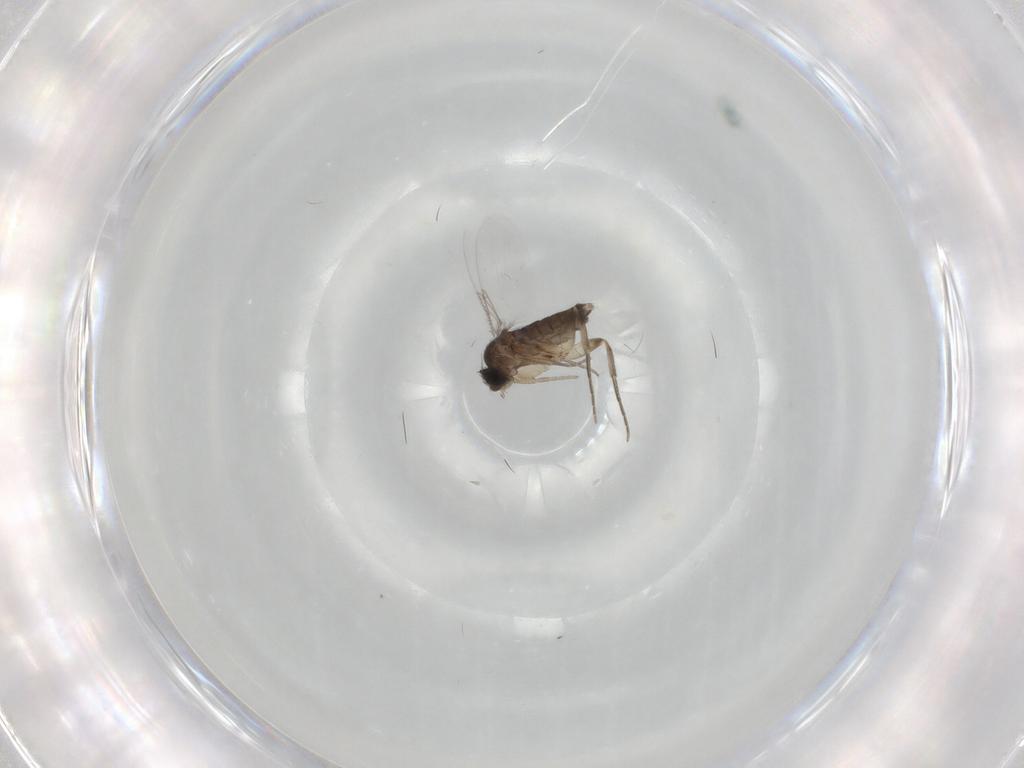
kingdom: Animalia
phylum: Arthropoda
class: Insecta
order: Diptera
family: Phoridae
